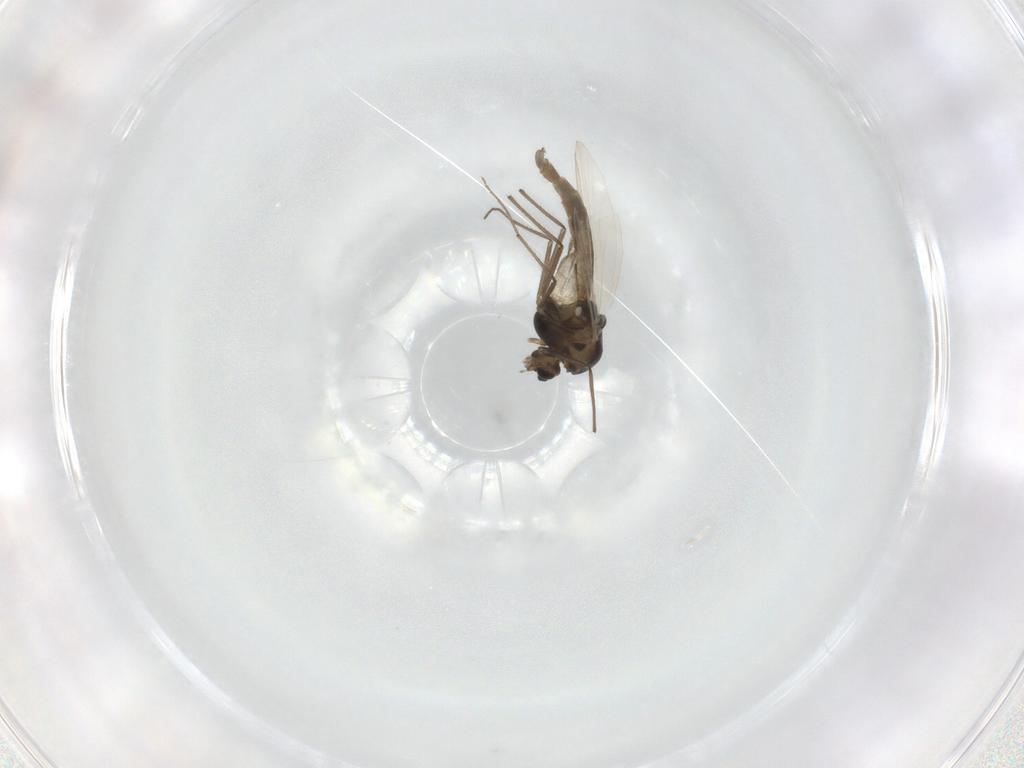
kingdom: Animalia
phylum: Arthropoda
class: Insecta
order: Diptera
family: Chironomidae
